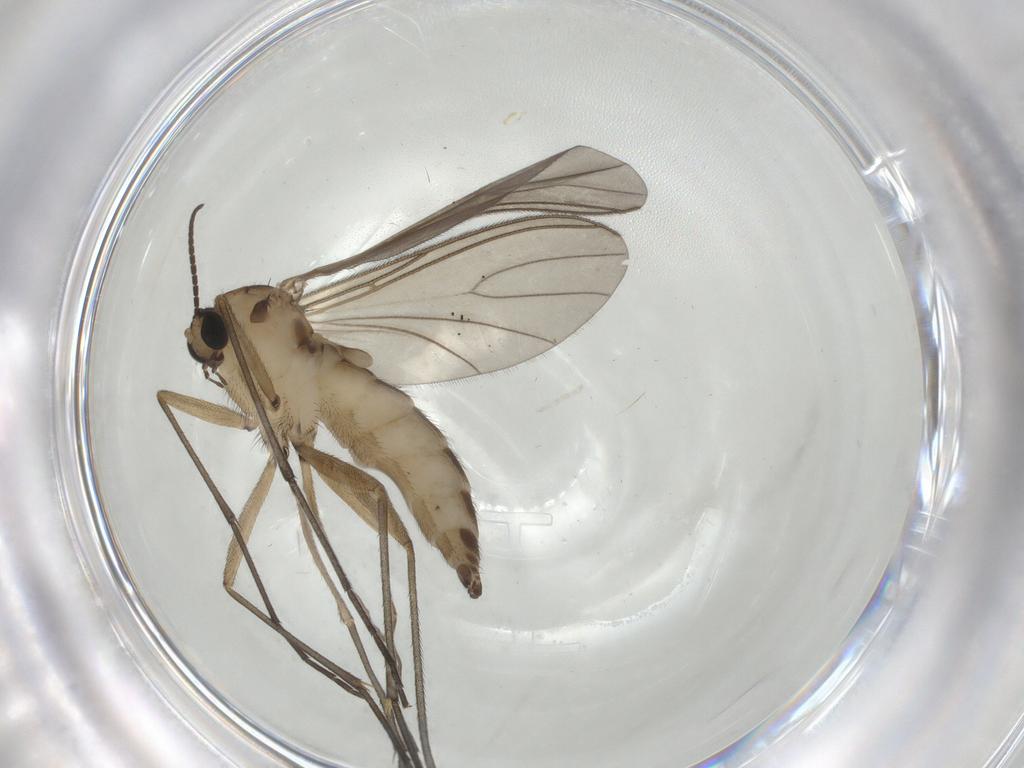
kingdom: Animalia
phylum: Arthropoda
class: Insecta
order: Diptera
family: Sciaridae
